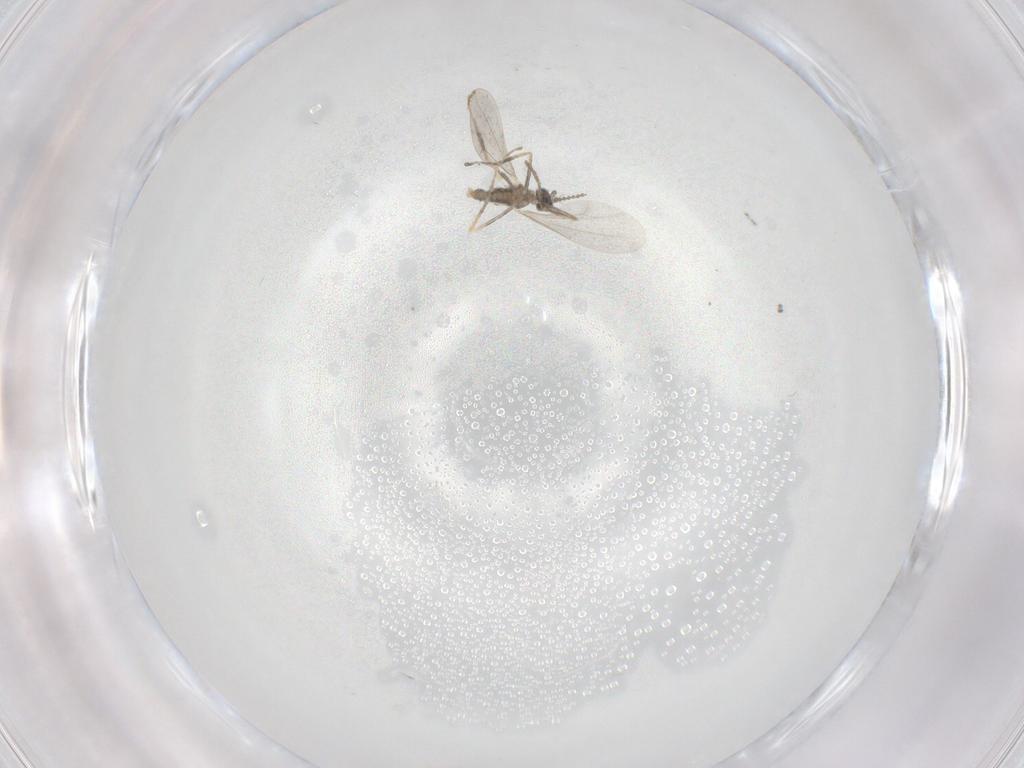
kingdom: Animalia
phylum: Arthropoda
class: Insecta
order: Diptera
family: Cecidomyiidae
